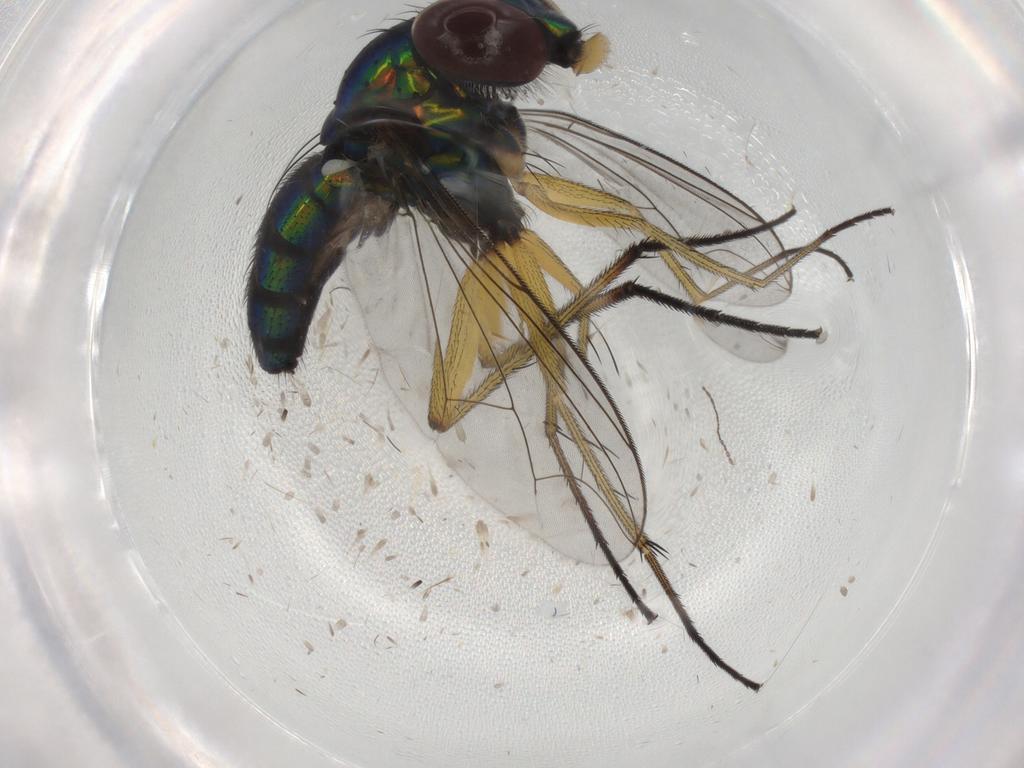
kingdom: Animalia
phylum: Arthropoda
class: Insecta
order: Diptera
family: Dolichopodidae
